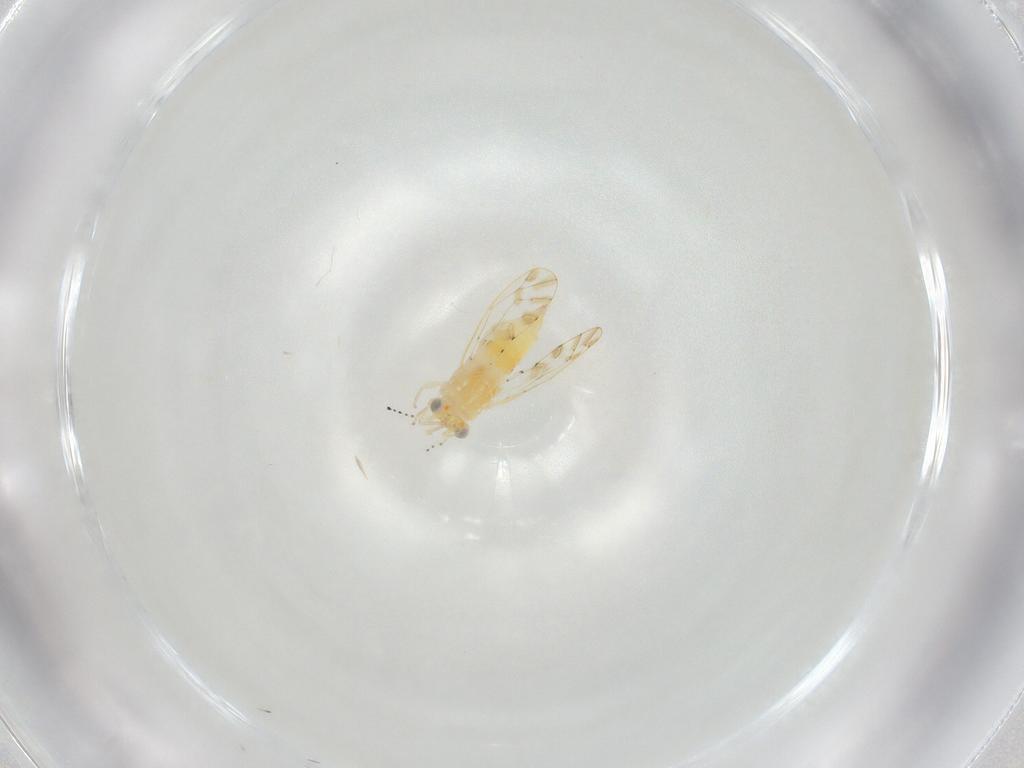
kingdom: Animalia
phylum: Arthropoda
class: Insecta
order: Hemiptera
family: Aphalaridae
